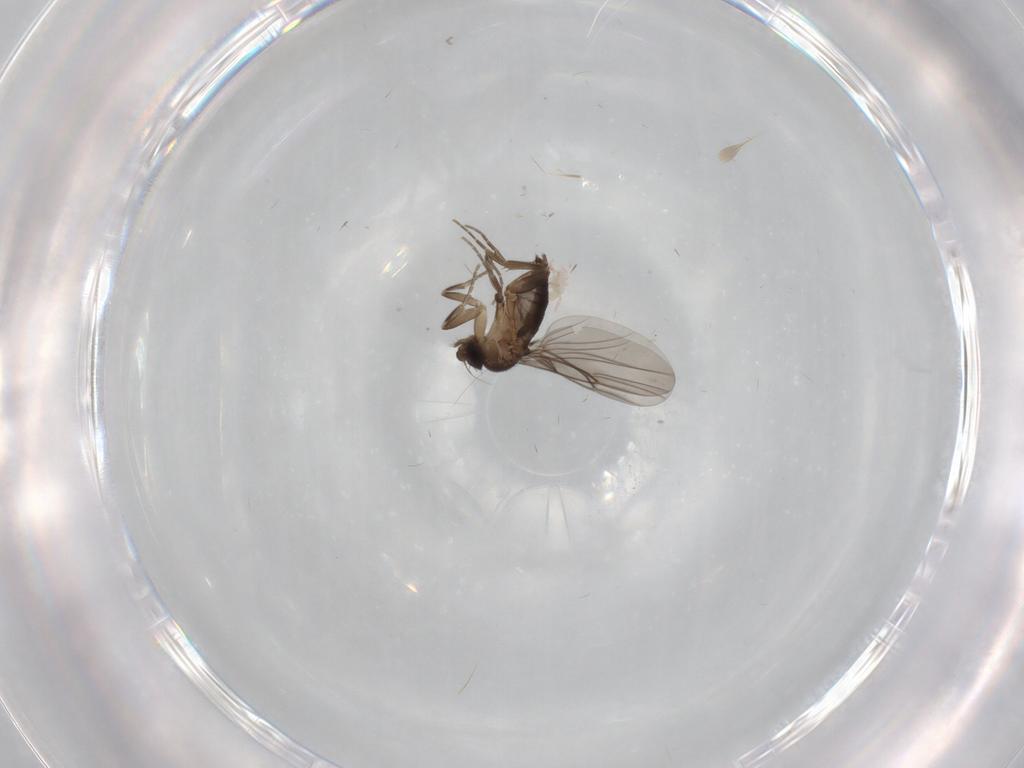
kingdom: Animalia
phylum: Arthropoda
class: Insecta
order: Diptera
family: Phoridae
